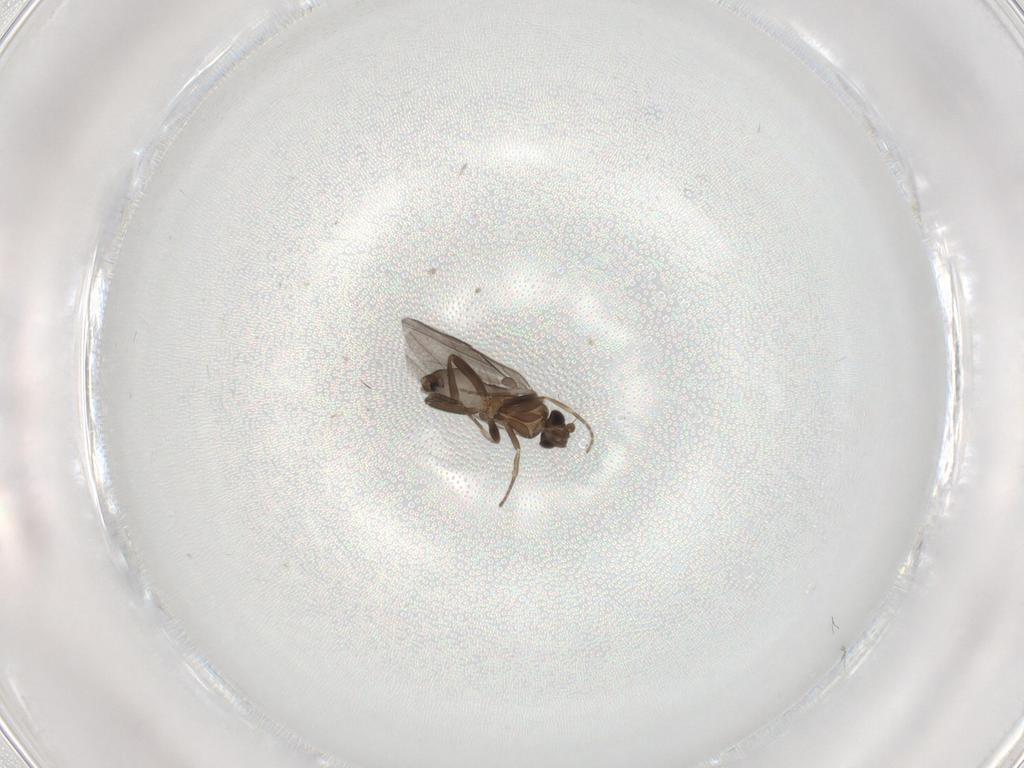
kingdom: Animalia
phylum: Arthropoda
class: Insecta
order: Diptera
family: Phoridae
